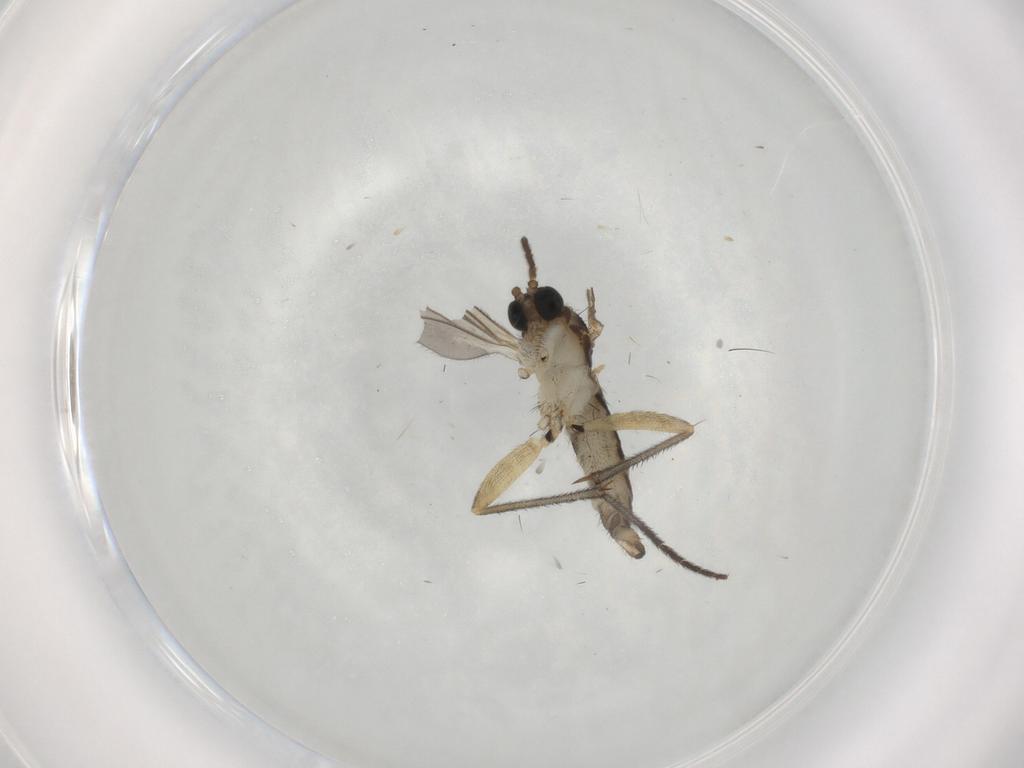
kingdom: Animalia
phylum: Arthropoda
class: Insecta
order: Diptera
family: Sciaridae
